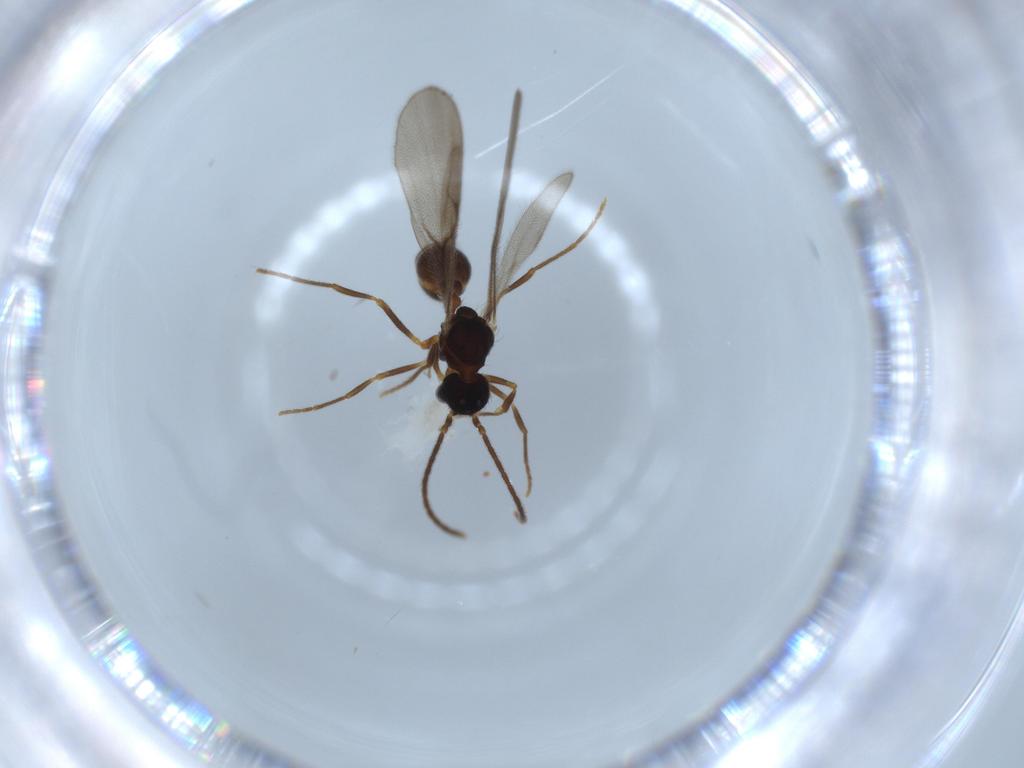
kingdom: Animalia
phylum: Arthropoda
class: Insecta
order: Hymenoptera
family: Formicidae
